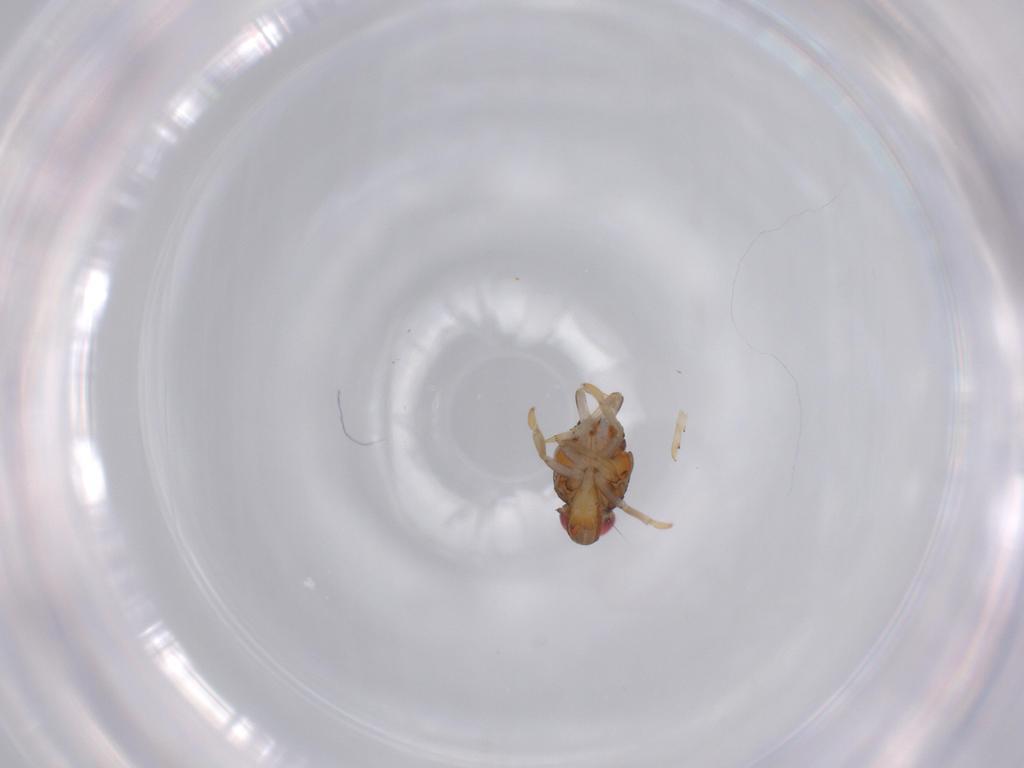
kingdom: Animalia
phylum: Arthropoda
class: Insecta
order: Hemiptera
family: Issidae
